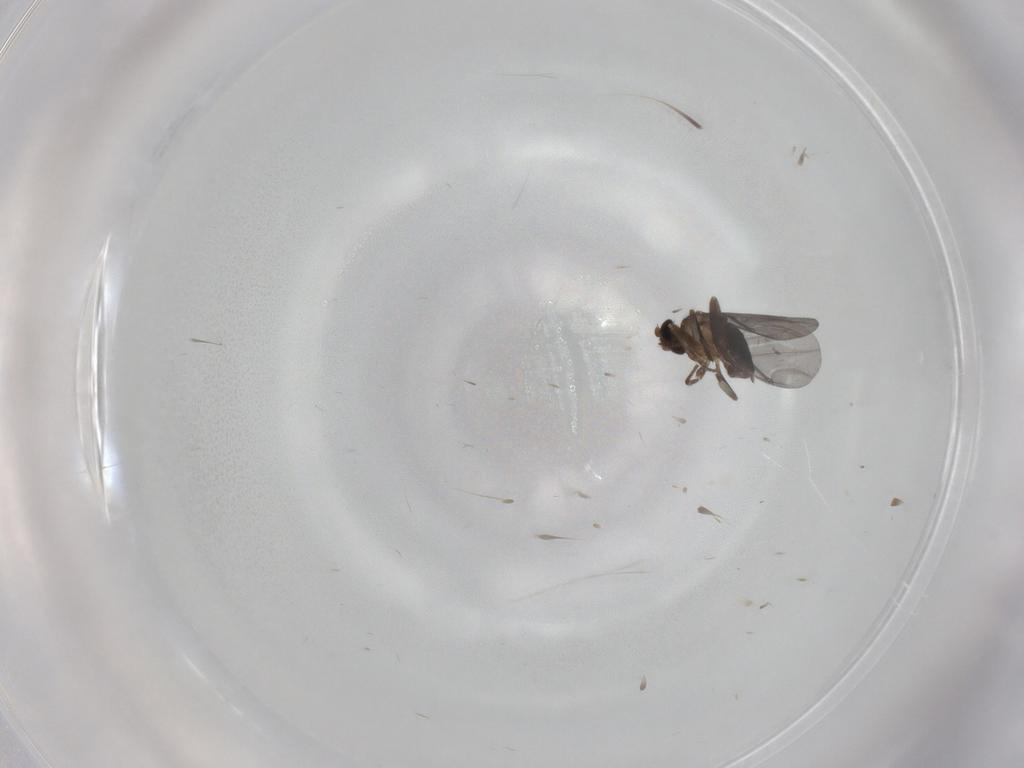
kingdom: Animalia
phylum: Arthropoda
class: Insecta
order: Diptera
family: Phoridae
